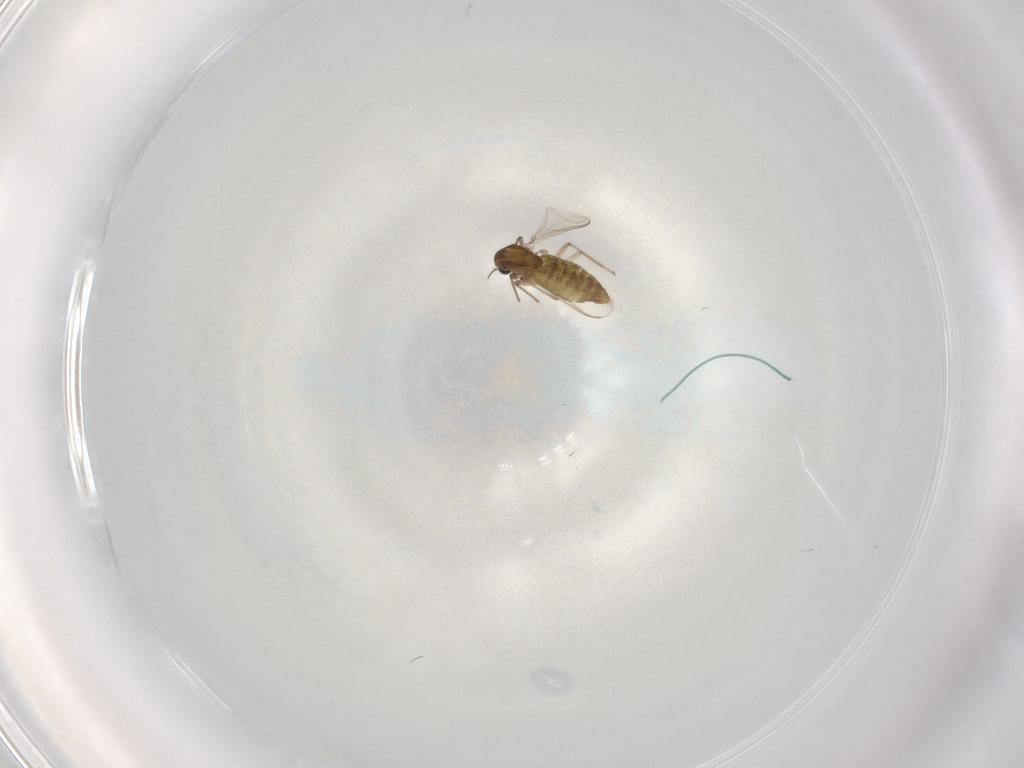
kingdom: Animalia
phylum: Arthropoda
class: Insecta
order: Diptera
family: Chironomidae
